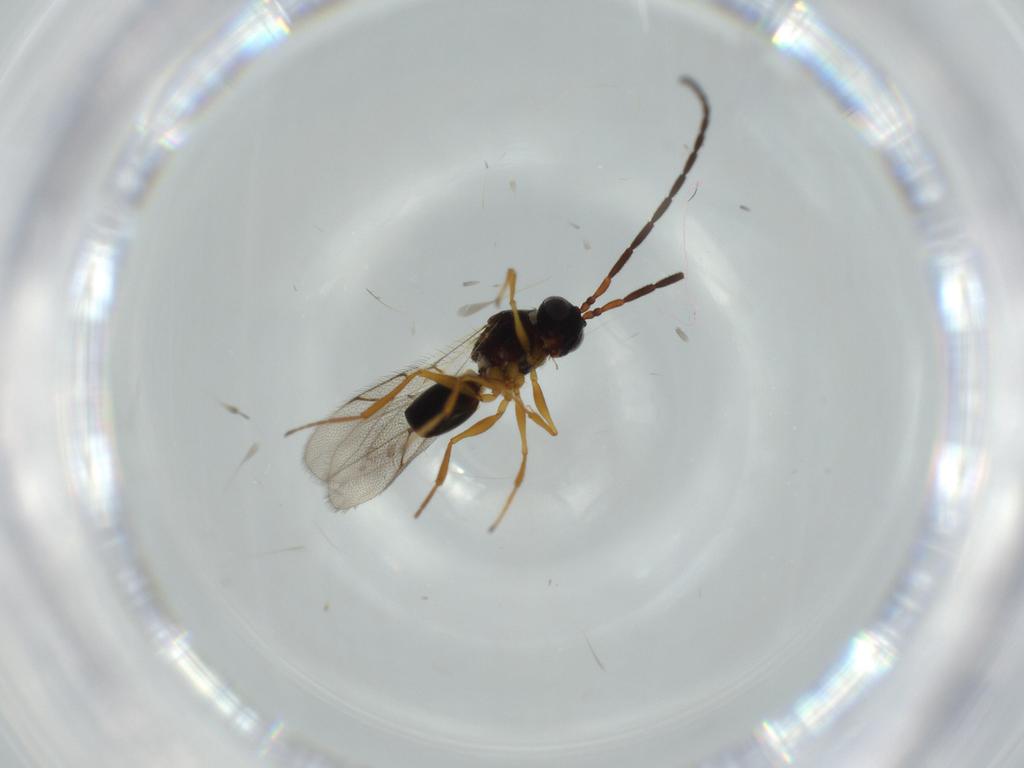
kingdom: Animalia
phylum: Arthropoda
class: Insecta
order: Hymenoptera
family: Figitidae
